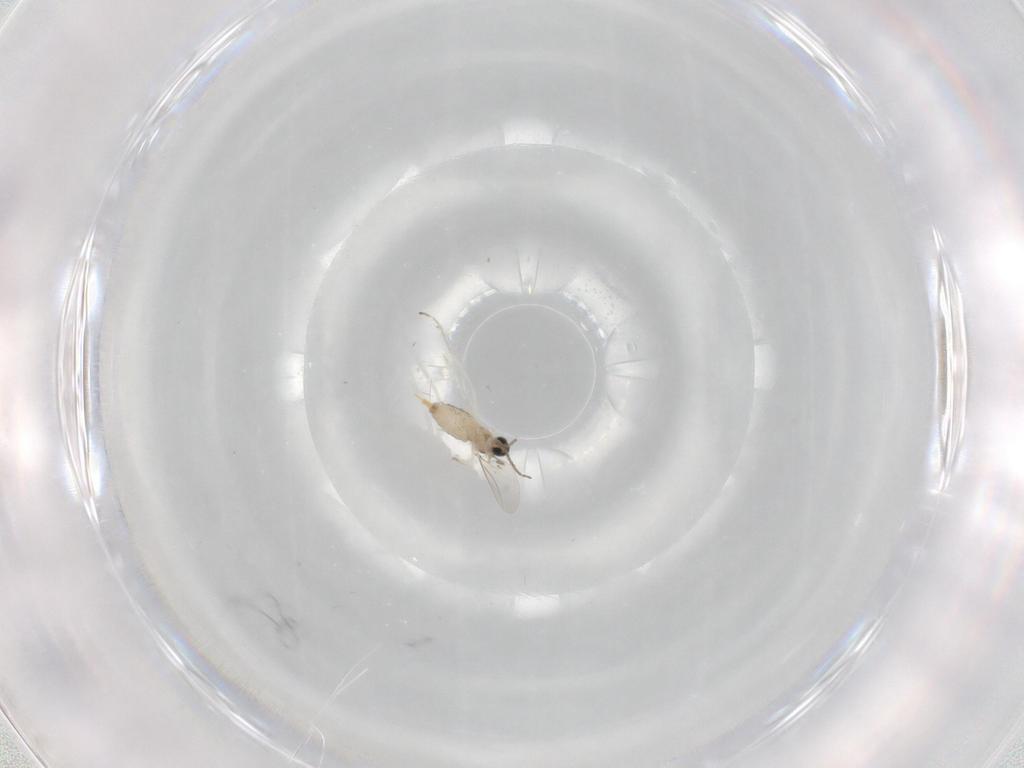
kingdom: Animalia
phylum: Arthropoda
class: Insecta
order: Diptera
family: Cecidomyiidae
